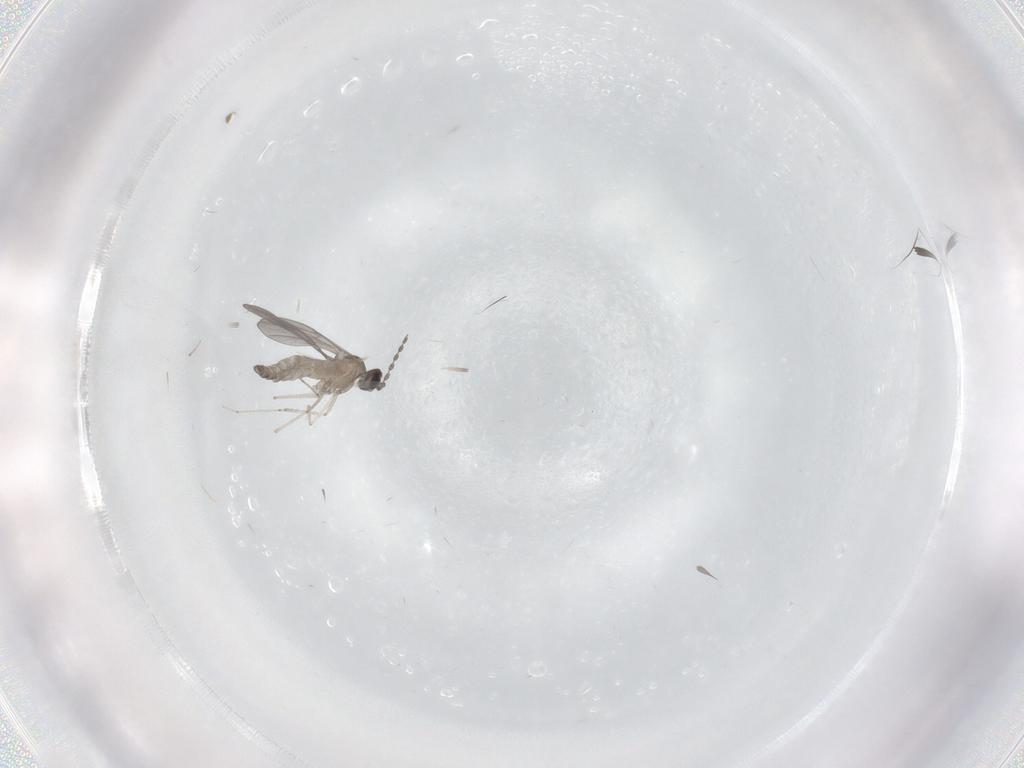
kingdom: Animalia
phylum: Arthropoda
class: Insecta
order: Diptera
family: Cecidomyiidae
